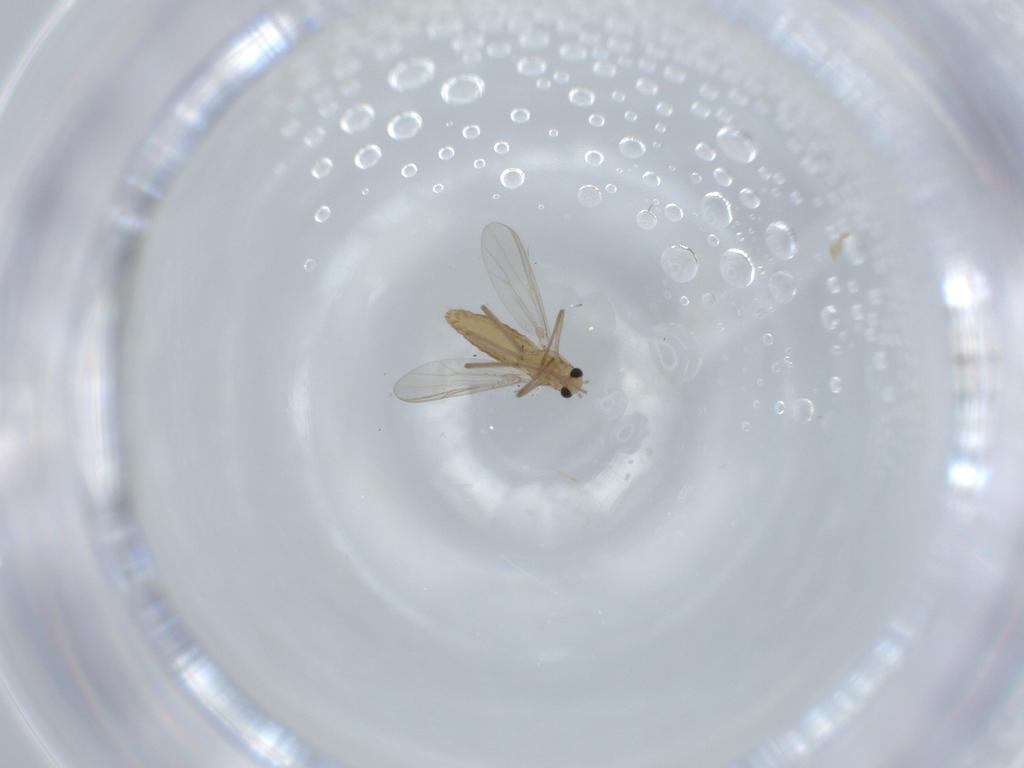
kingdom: Animalia
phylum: Arthropoda
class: Insecta
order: Diptera
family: Chironomidae
